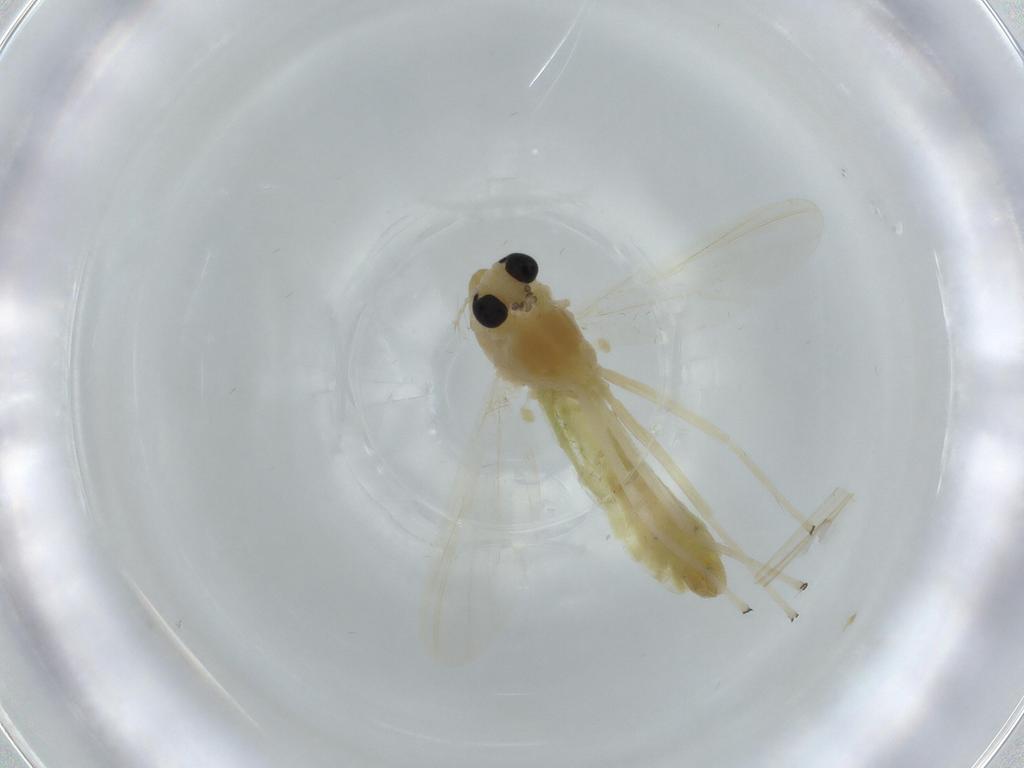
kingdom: Animalia
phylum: Arthropoda
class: Insecta
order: Diptera
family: Chironomidae
